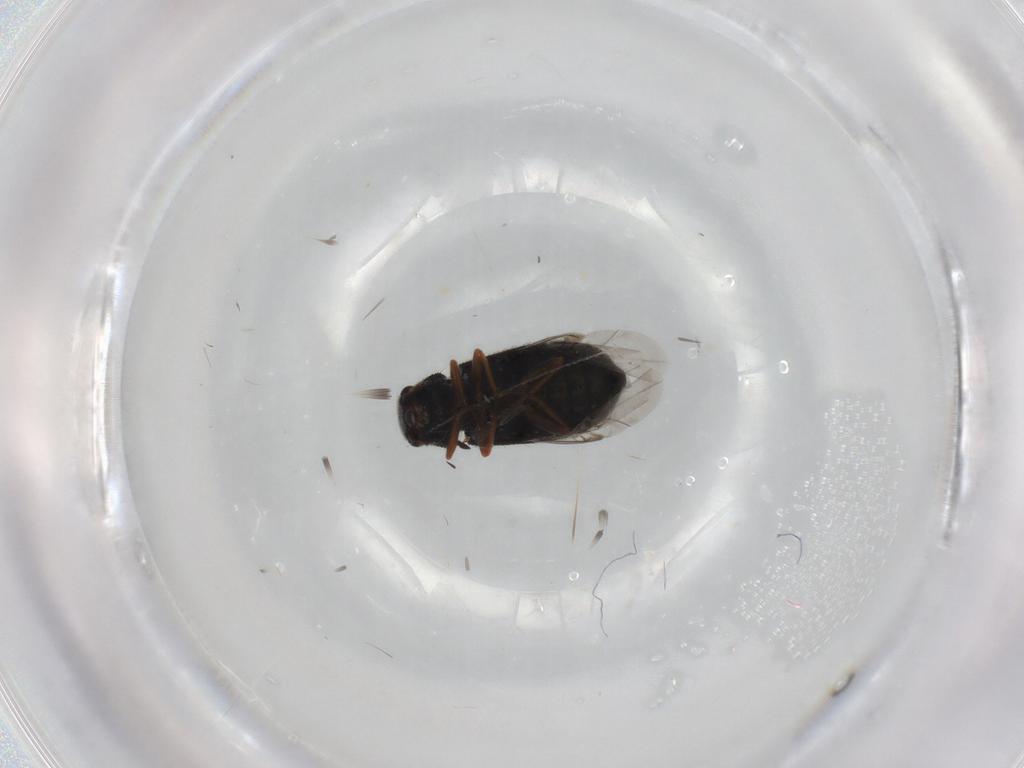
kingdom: Animalia
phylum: Arthropoda
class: Insecta
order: Coleoptera
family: Melyridae
